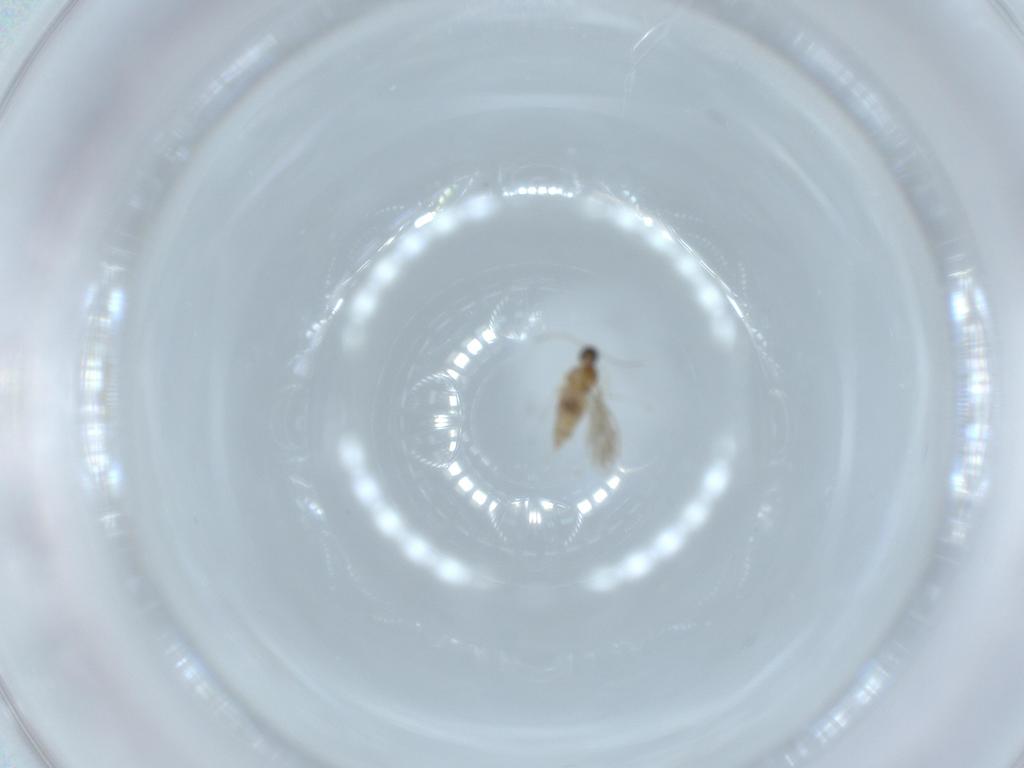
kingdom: Animalia
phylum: Arthropoda
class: Insecta
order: Diptera
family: Cecidomyiidae
